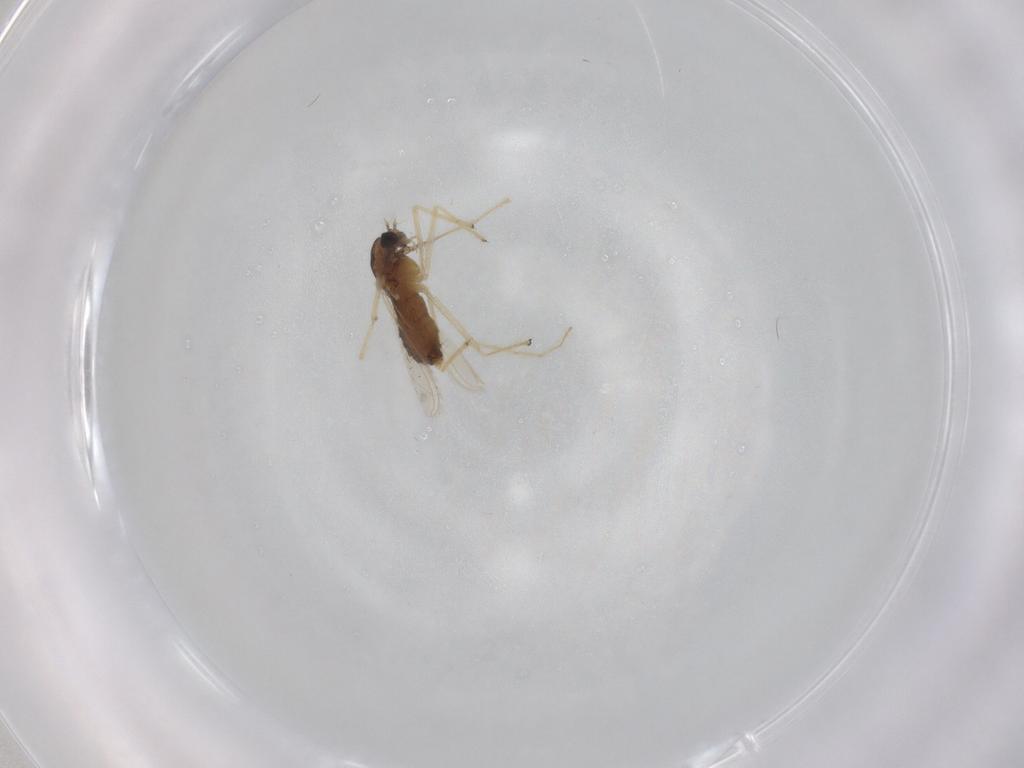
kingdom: Animalia
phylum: Arthropoda
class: Insecta
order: Diptera
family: Chironomidae
